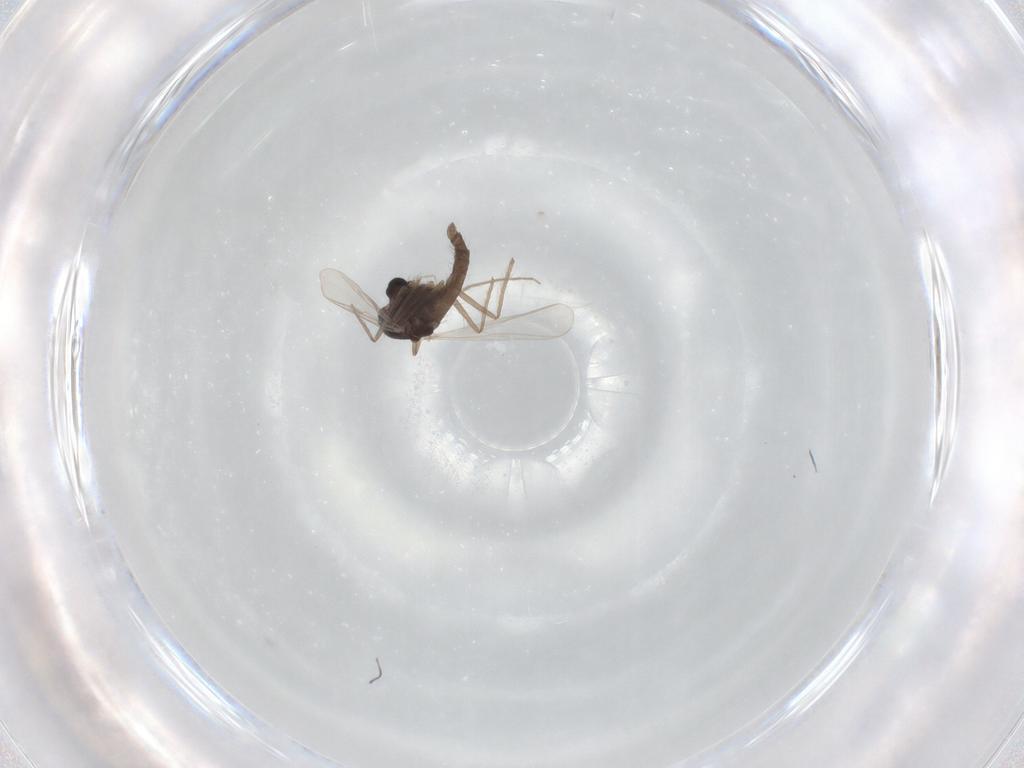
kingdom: Animalia
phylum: Arthropoda
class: Insecta
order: Diptera
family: Chironomidae
